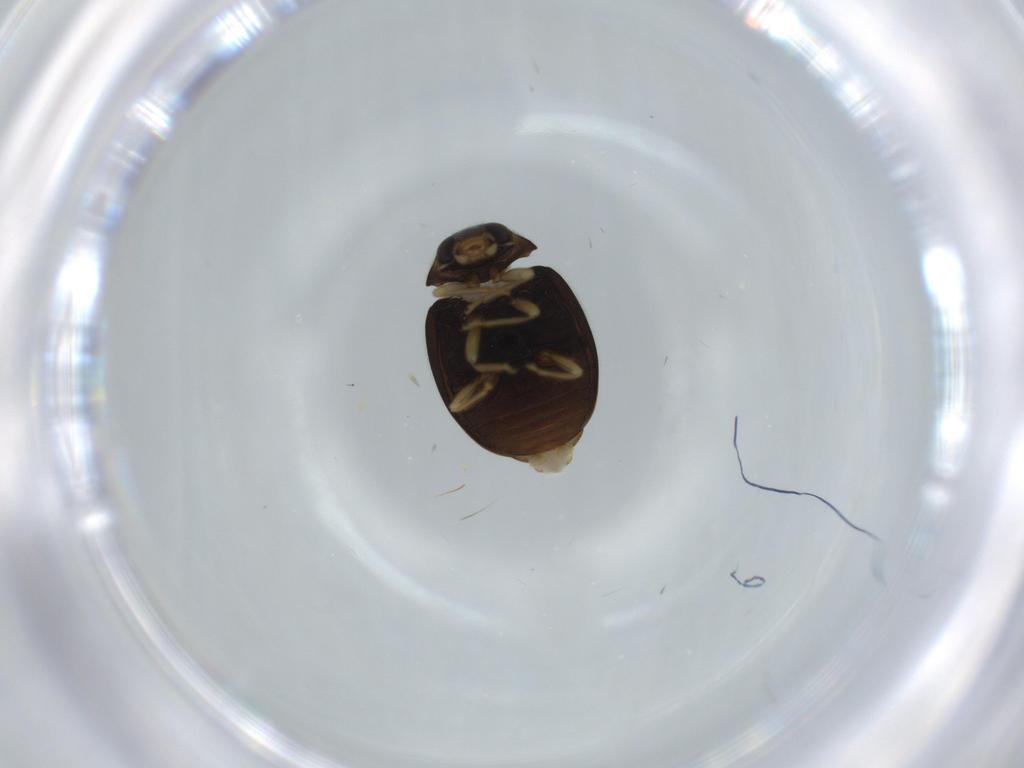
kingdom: Animalia
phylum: Arthropoda
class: Insecta
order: Coleoptera
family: Coccinellidae
